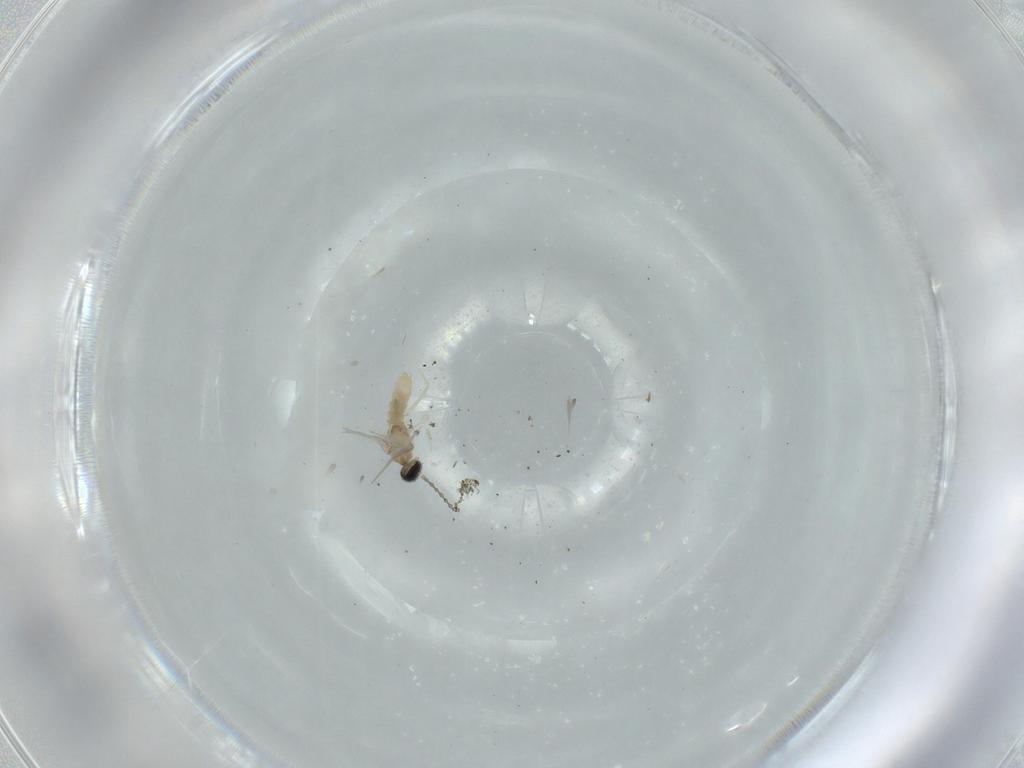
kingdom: Animalia
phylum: Arthropoda
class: Insecta
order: Diptera
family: Cecidomyiidae
